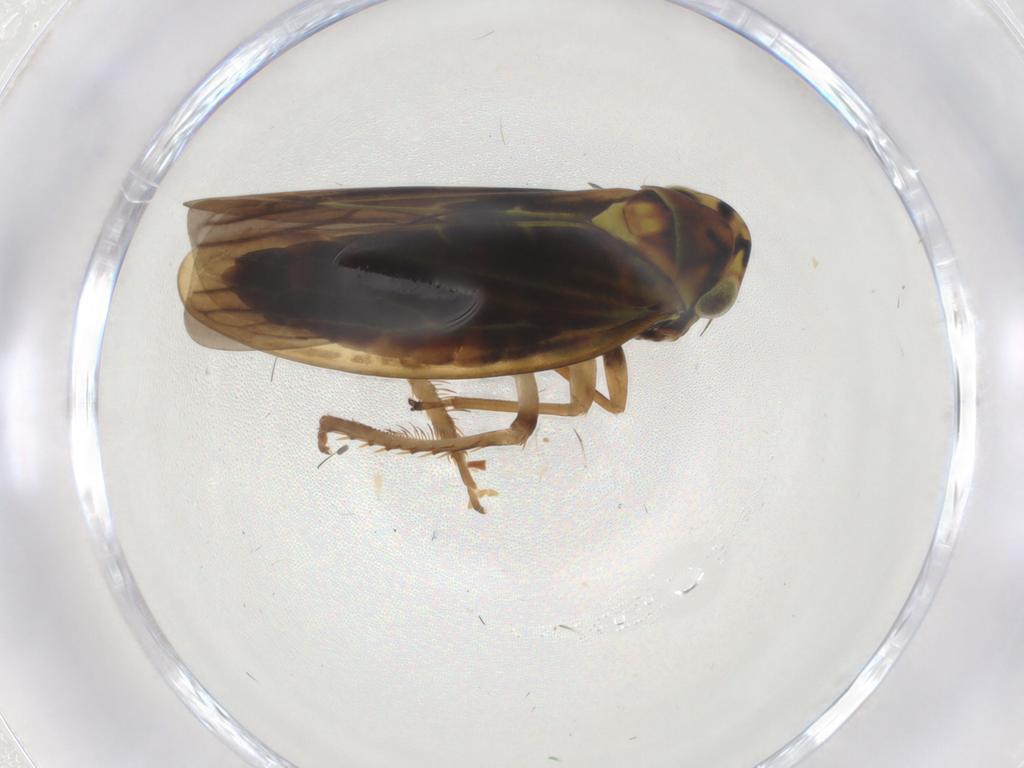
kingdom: Animalia
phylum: Arthropoda
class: Insecta
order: Hemiptera
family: Cicadellidae
